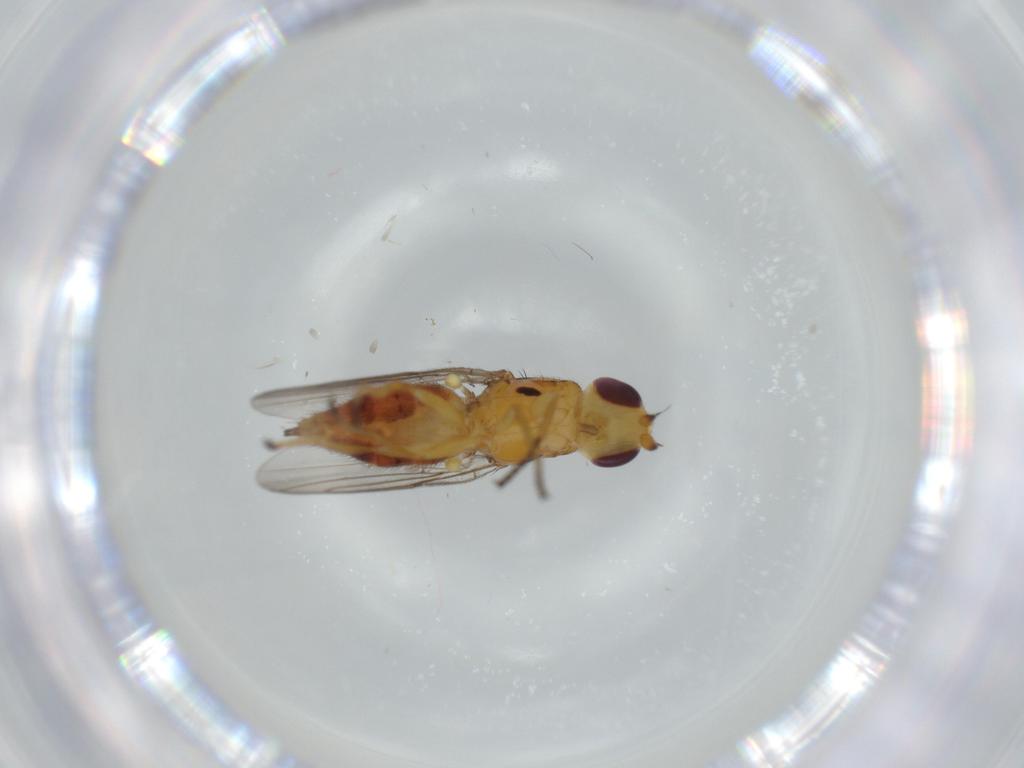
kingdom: Animalia
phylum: Arthropoda
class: Insecta
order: Diptera
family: Chloropidae
